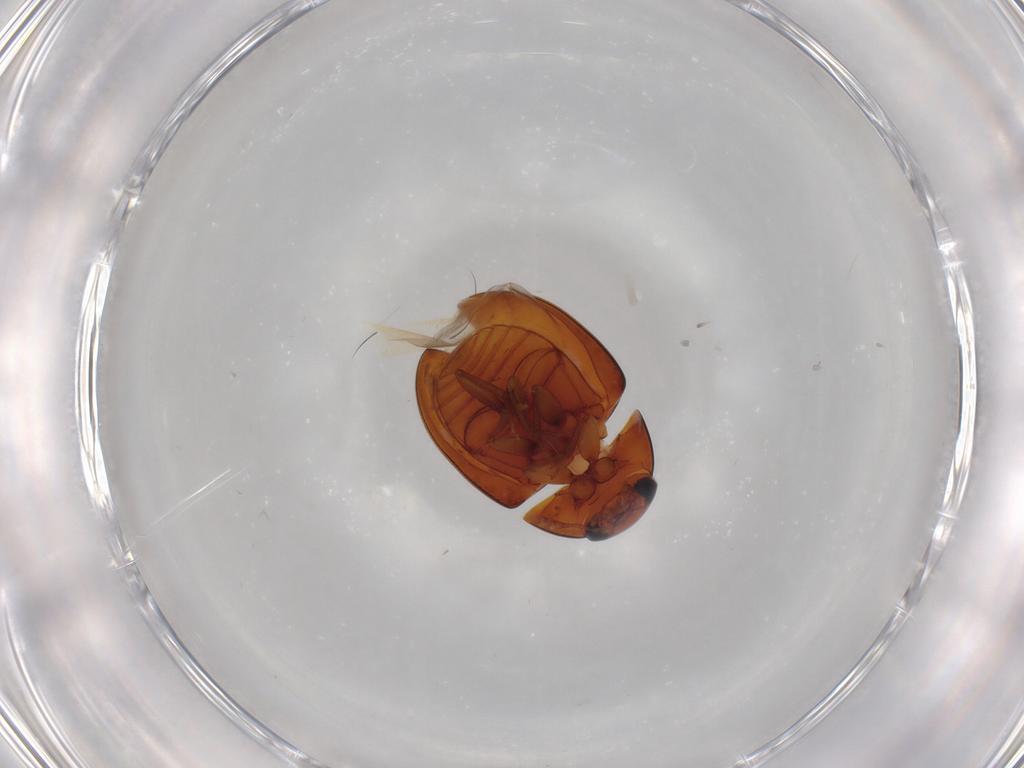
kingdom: Animalia
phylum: Arthropoda
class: Insecta
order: Coleoptera
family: Phalacridae
